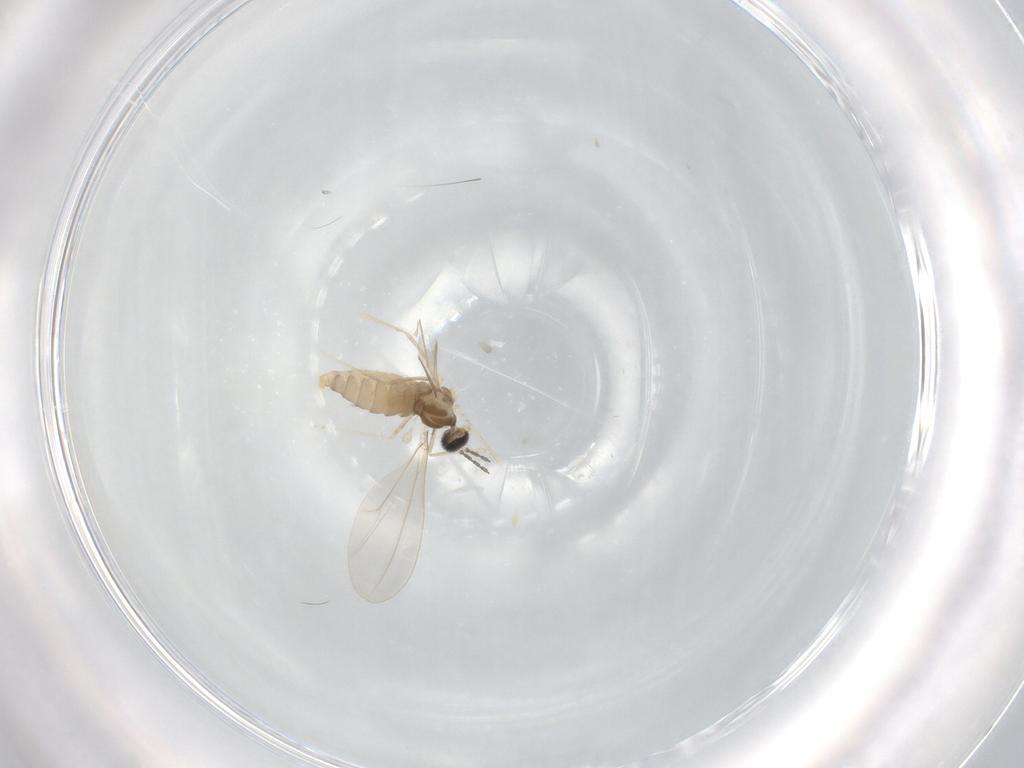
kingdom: Animalia
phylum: Arthropoda
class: Insecta
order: Diptera
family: Cecidomyiidae
